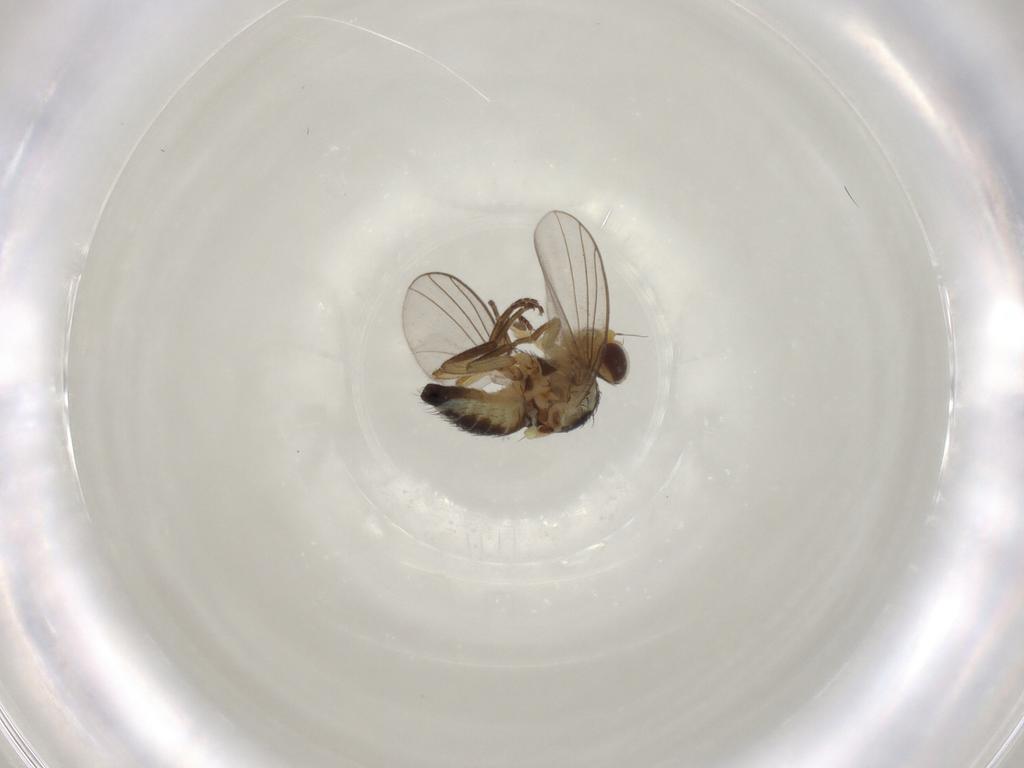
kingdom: Animalia
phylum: Arthropoda
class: Insecta
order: Diptera
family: Agromyzidae
